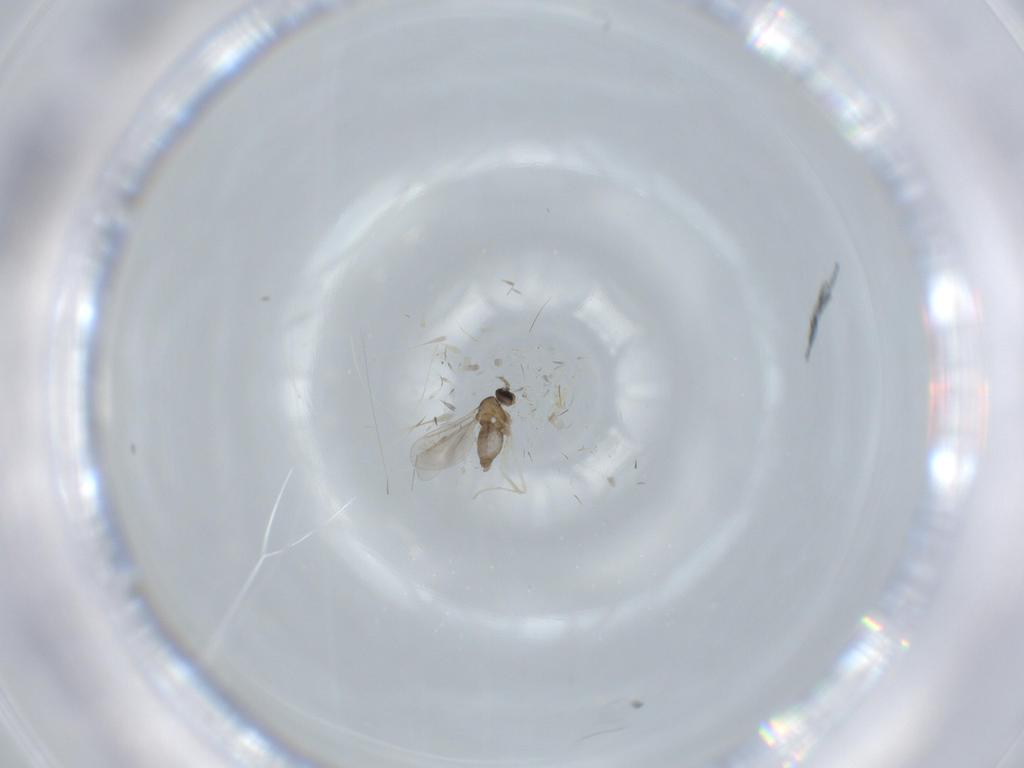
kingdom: Animalia
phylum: Arthropoda
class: Insecta
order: Diptera
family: Cecidomyiidae
